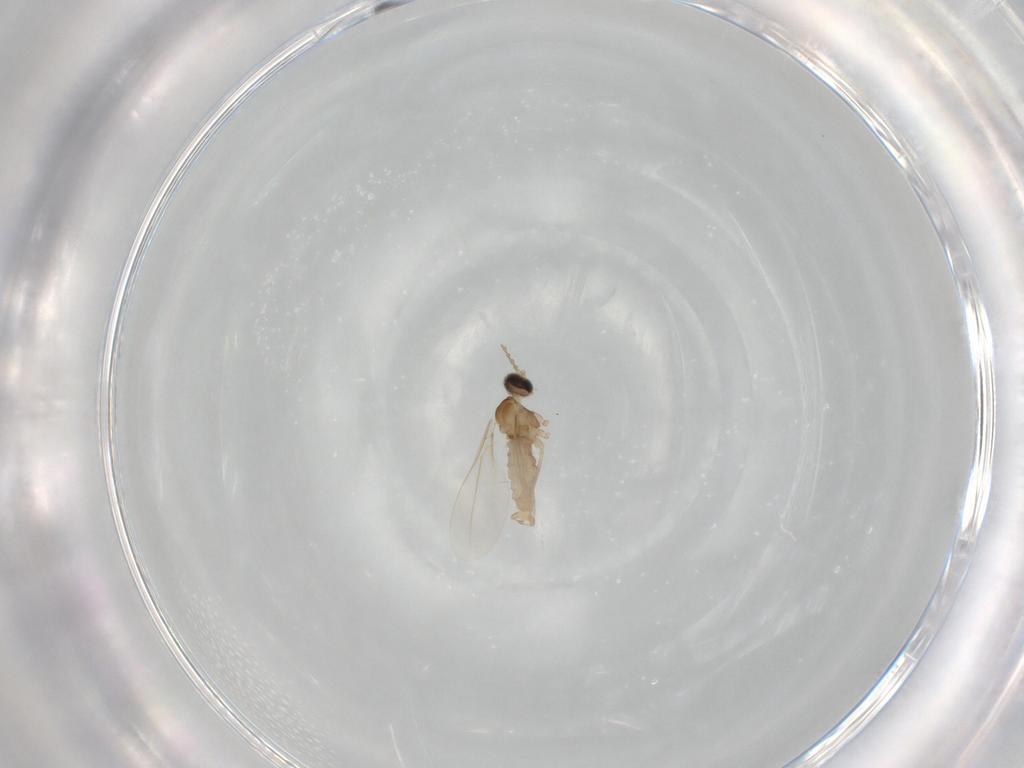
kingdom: Animalia
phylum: Arthropoda
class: Insecta
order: Diptera
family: Cecidomyiidae
